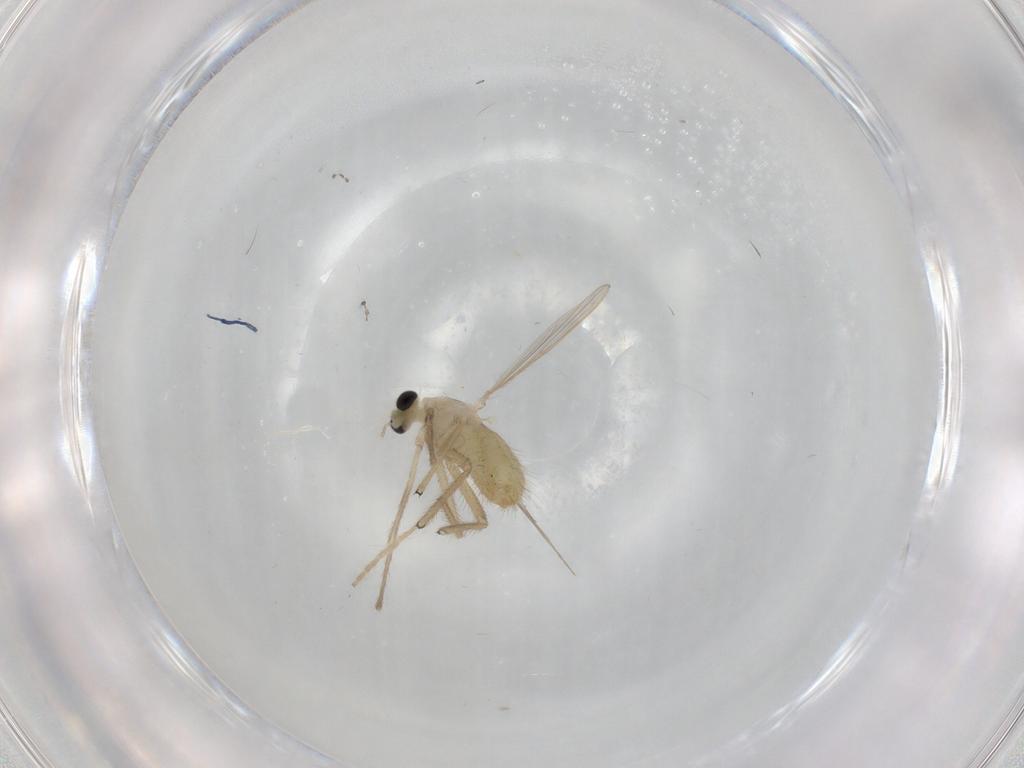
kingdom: Animalia
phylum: Arthropoda
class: Insecta
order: Diptera
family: Chironomidae
